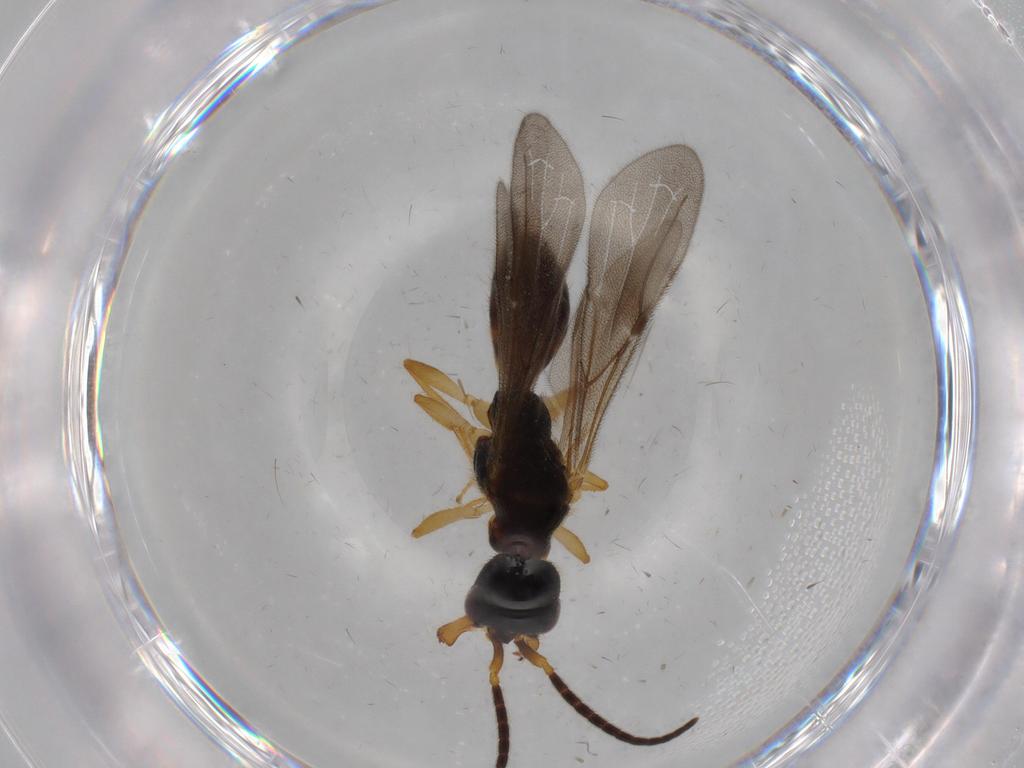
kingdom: Animalia
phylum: Arthropoda
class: Insecta
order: Hymenoptera
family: Bethylidae
